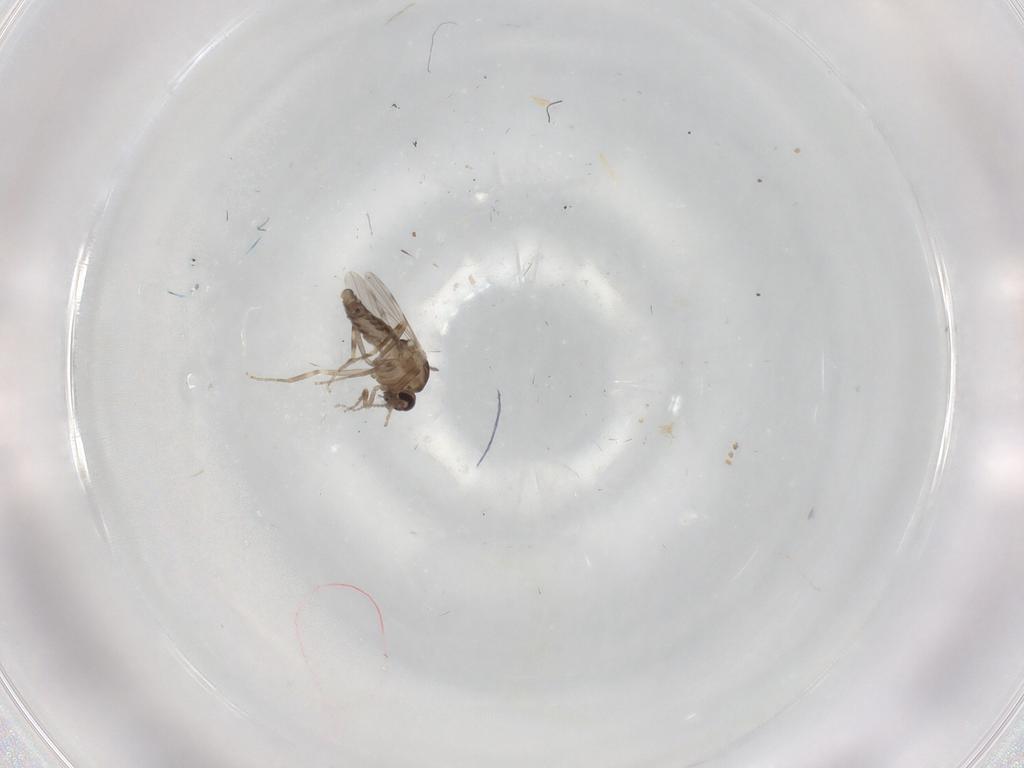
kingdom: Animalia
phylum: Arthropoda
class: Insecta
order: Diptera
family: Ceratopogonidae
